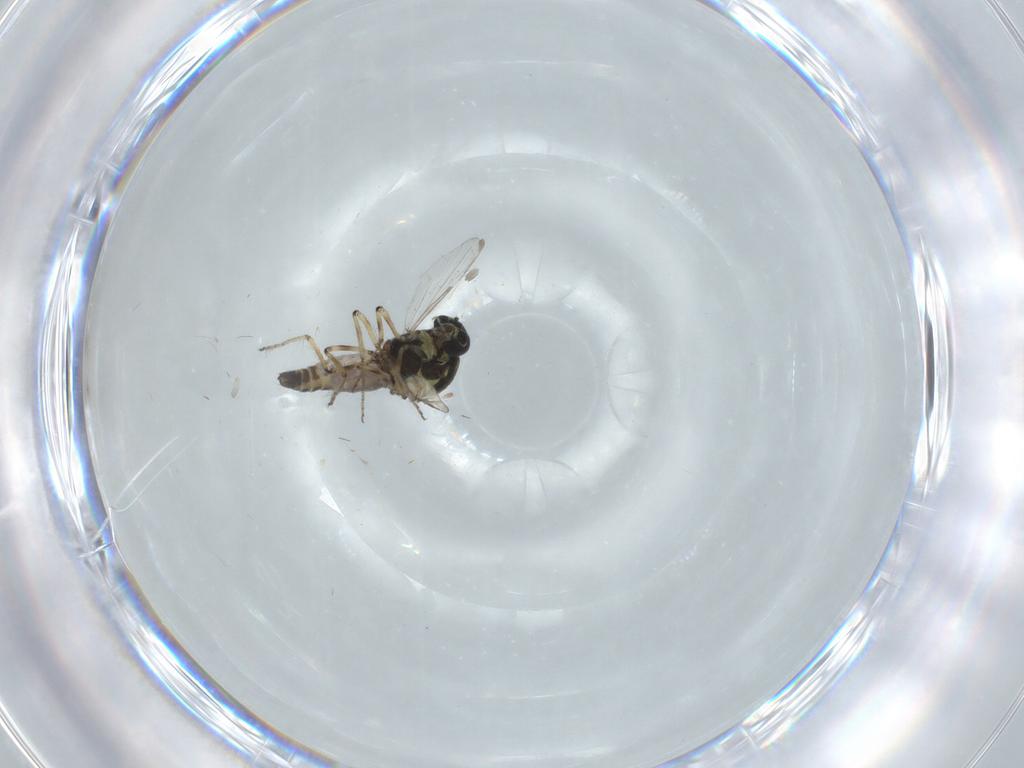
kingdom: Animalia
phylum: Arthropoda
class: Insecta
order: Diptera
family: Cecidomyiidae
